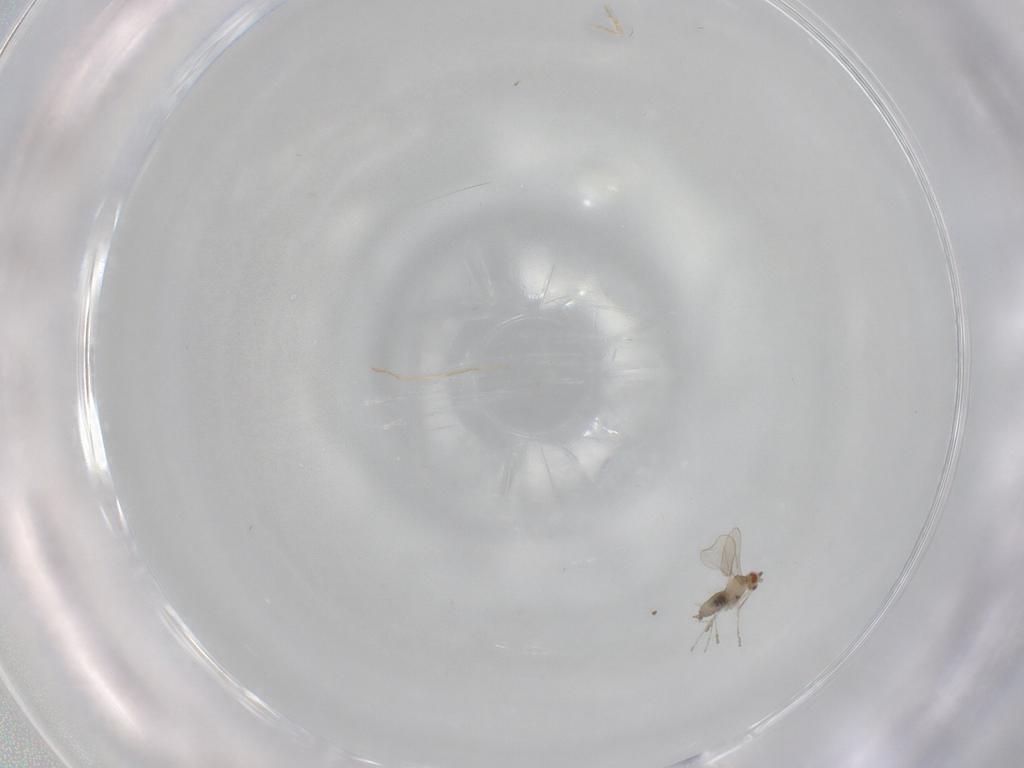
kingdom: Animalia
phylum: Arthropoda
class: Insecta
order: Diptera
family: Cecidomyiidae
